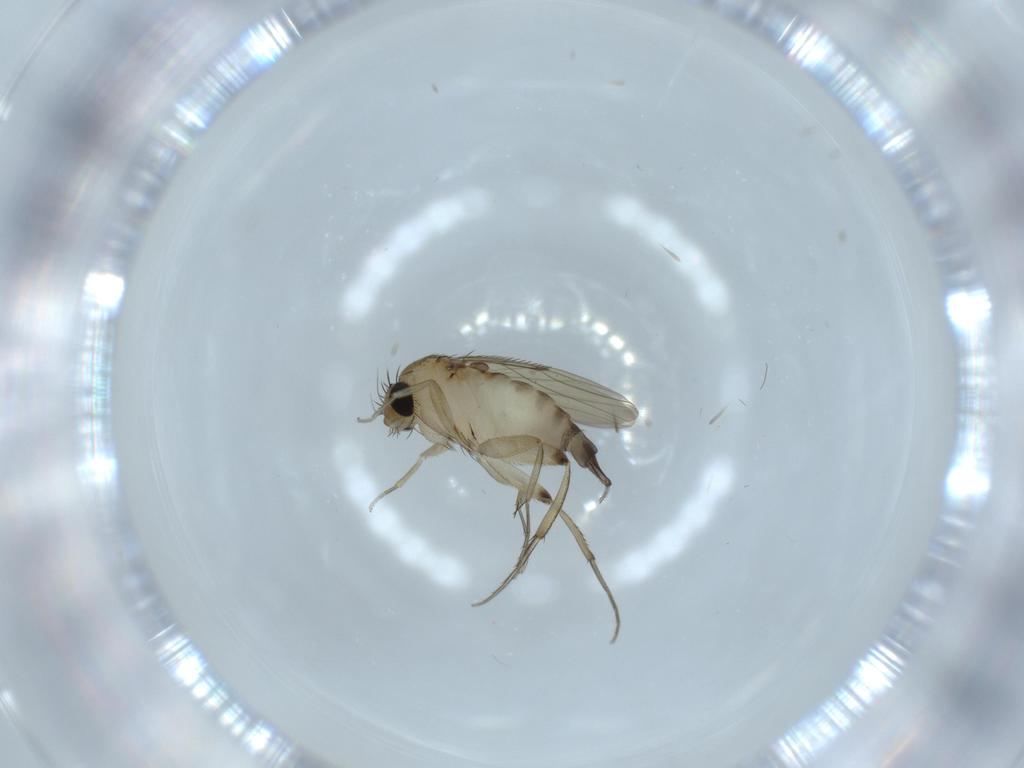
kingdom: Animalia
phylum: Arthropoda
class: Insecta
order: Diptera
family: Phoridae
